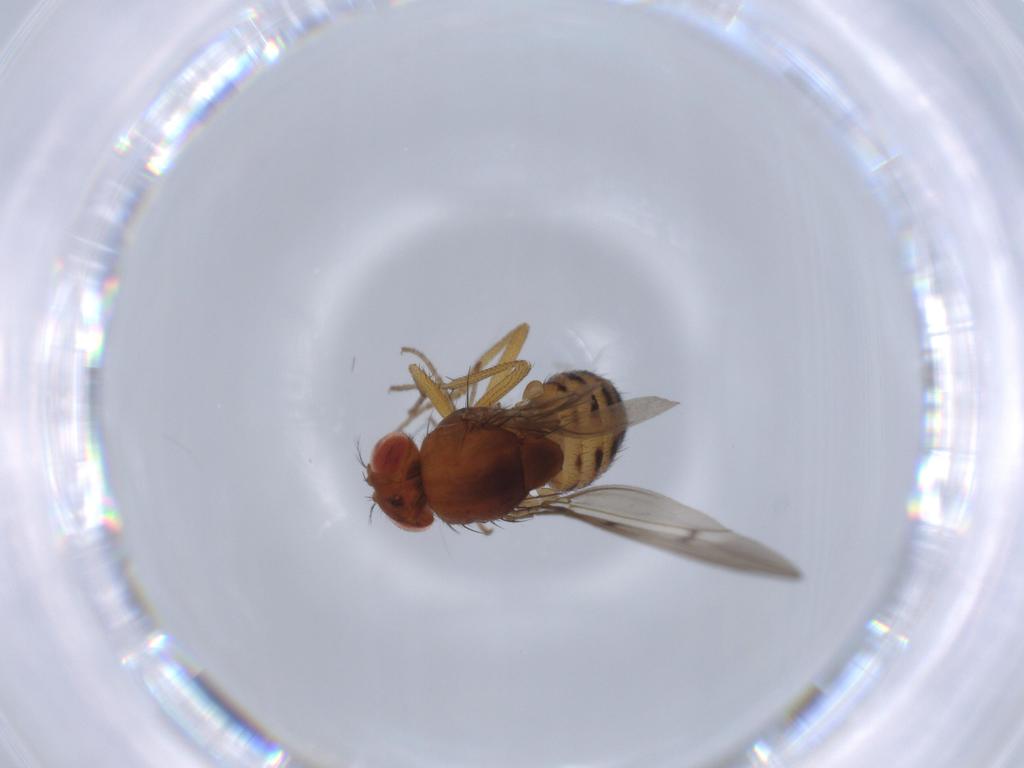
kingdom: Animalia
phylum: Arthropoda
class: Insecta
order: Diptera
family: Drosophilidae
